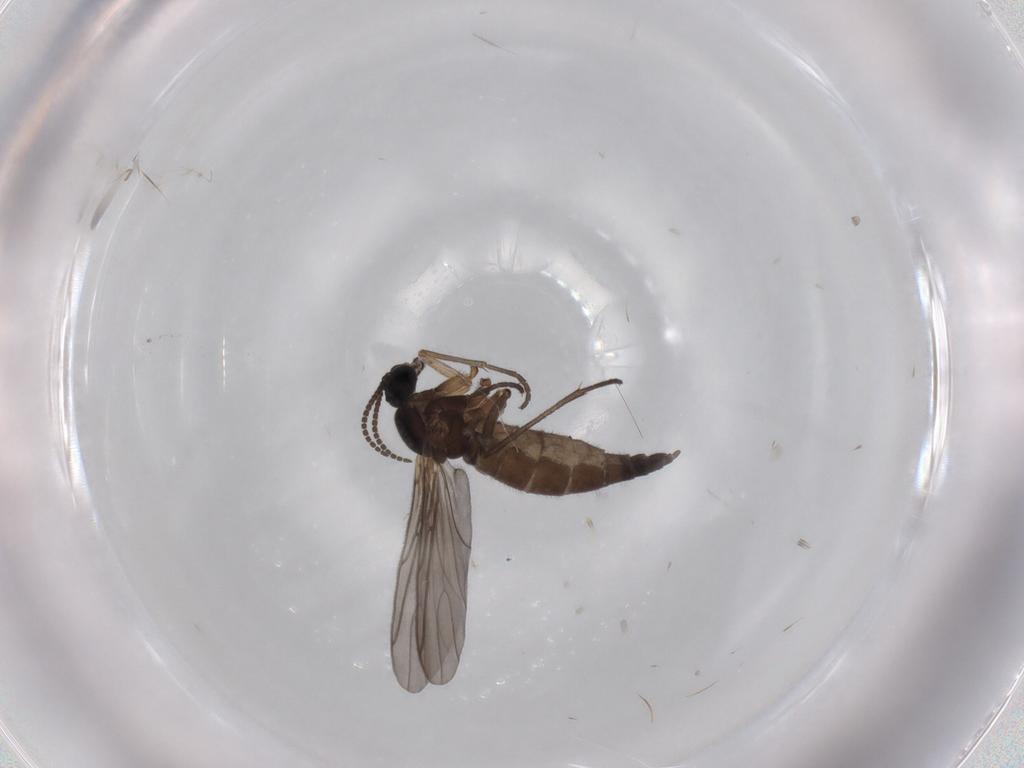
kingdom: Animalia
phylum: Arthropoda
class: Insecta
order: Diptera
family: Sciaridae
